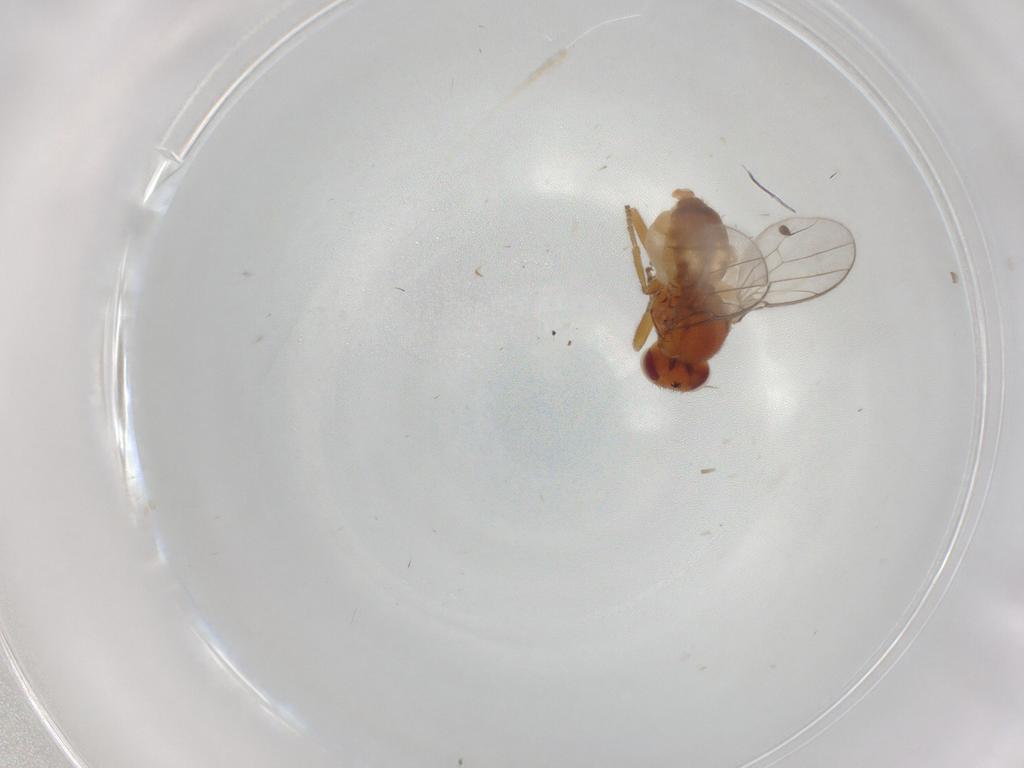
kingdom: Animalia
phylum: Arthropoda
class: Insecta
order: Diptera
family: Chloropidae
